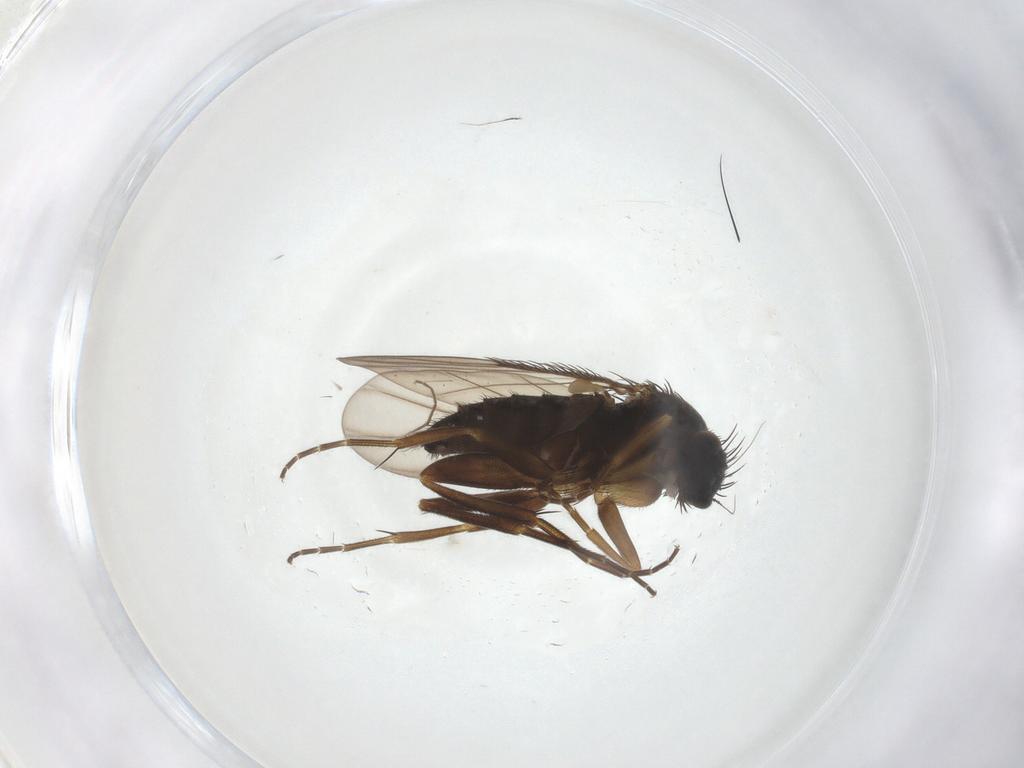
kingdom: Animalia
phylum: Arthropoda
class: Insecta
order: Diptera
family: Phoridae
